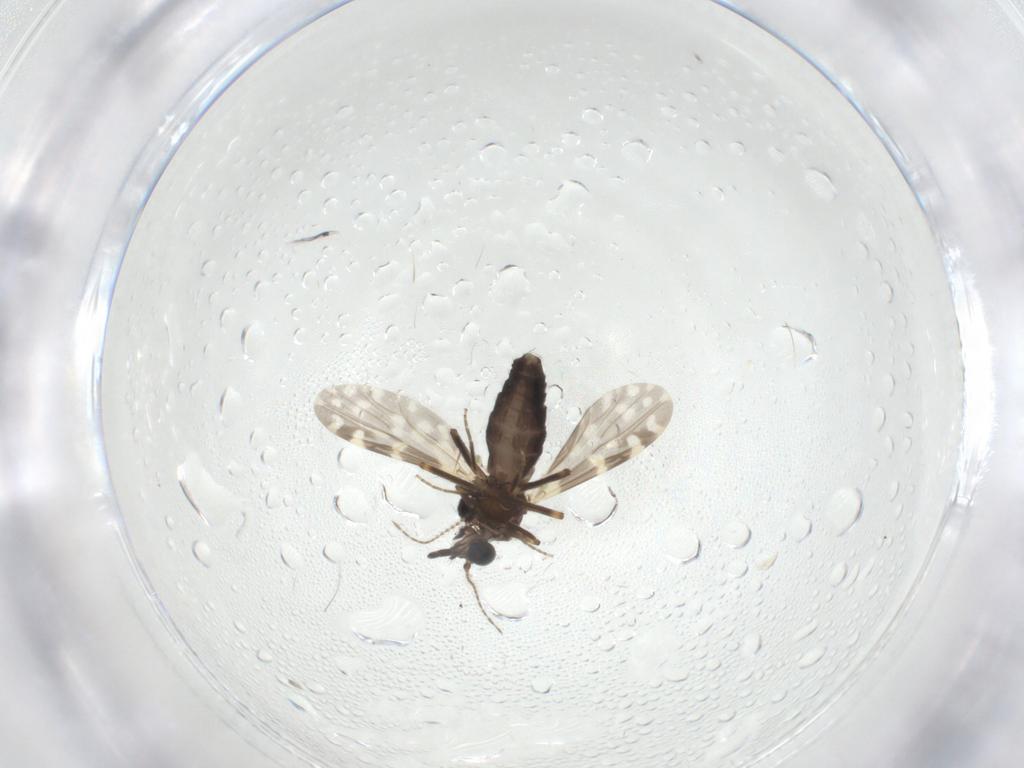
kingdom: Animalia
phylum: Arthropoda
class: Insecta
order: Diptera
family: Ceratopogonidae
